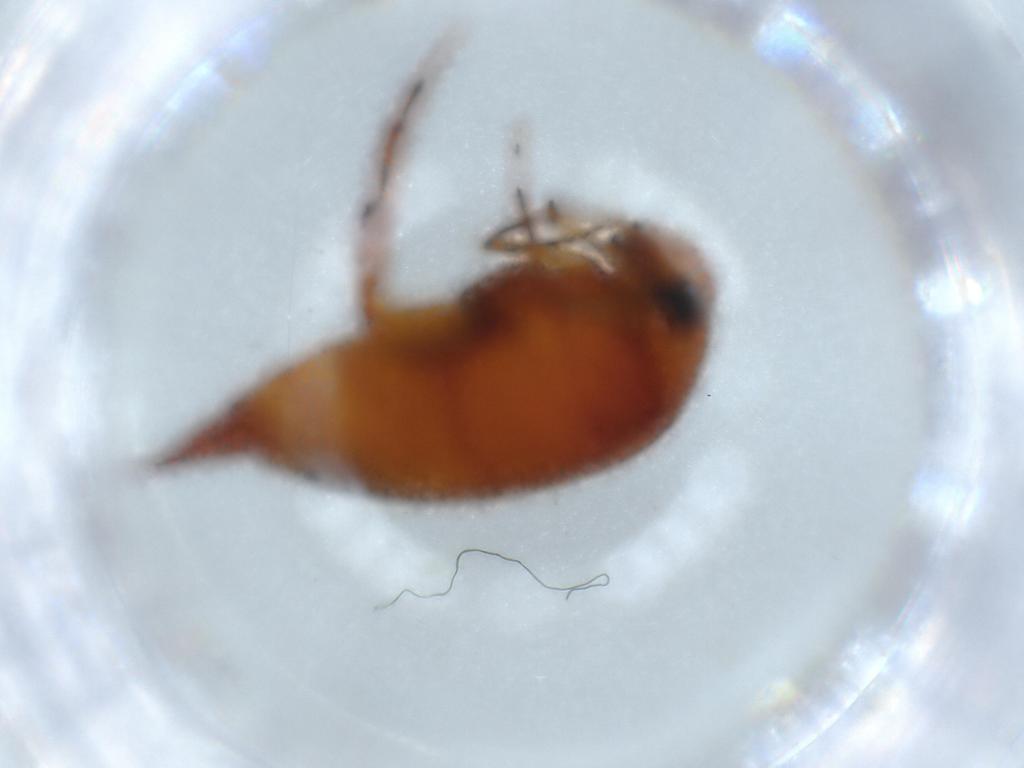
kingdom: Animalia
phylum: Arthropoda
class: Insecta
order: Coleoptera
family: Mordellidae
